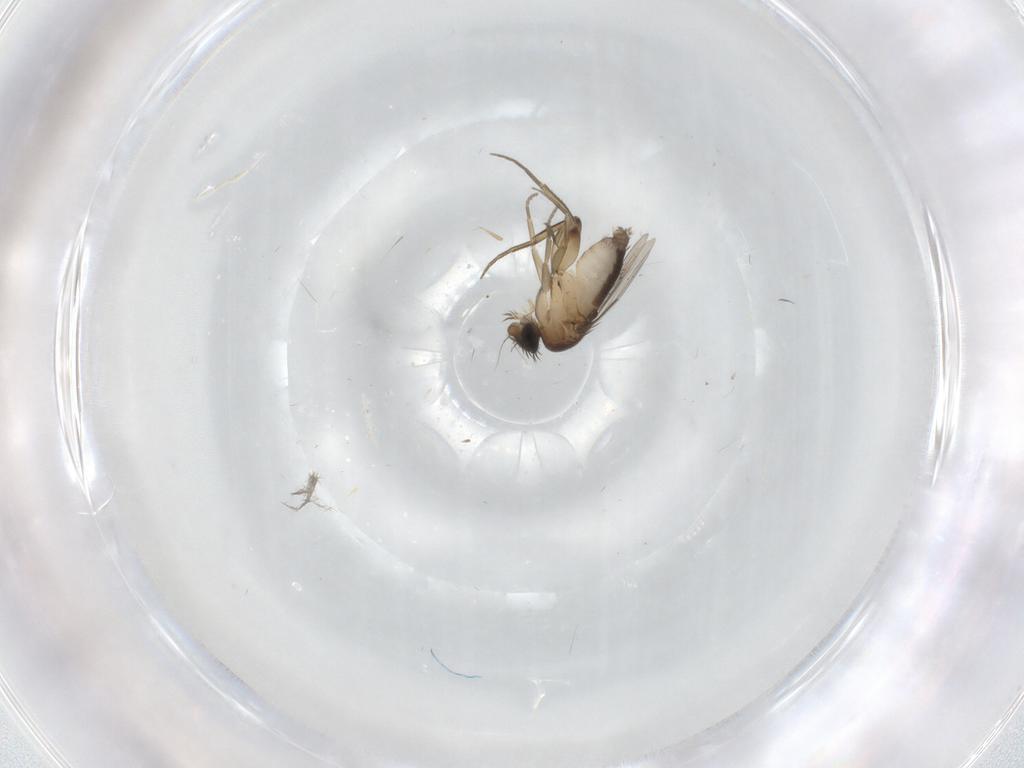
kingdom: Animalia
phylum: Arthropoda
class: Insecta
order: Diptera
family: Phoridae
